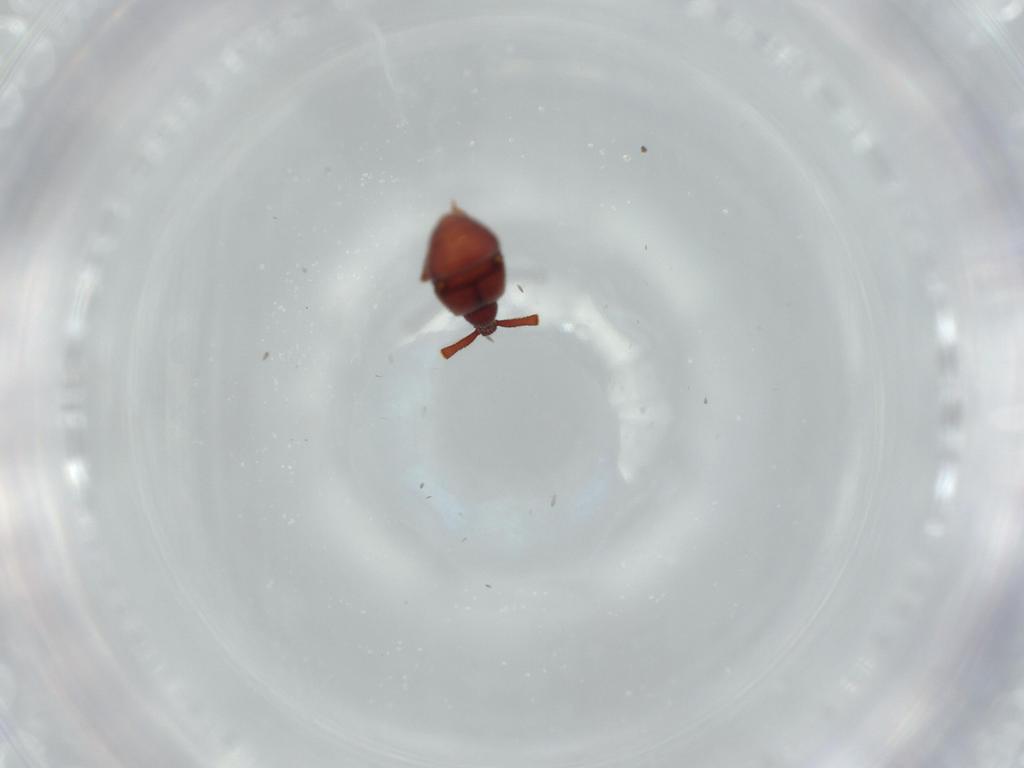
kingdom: Animalia
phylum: Arthropoda
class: Insecta
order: Coleoptera
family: Staphylinidae
